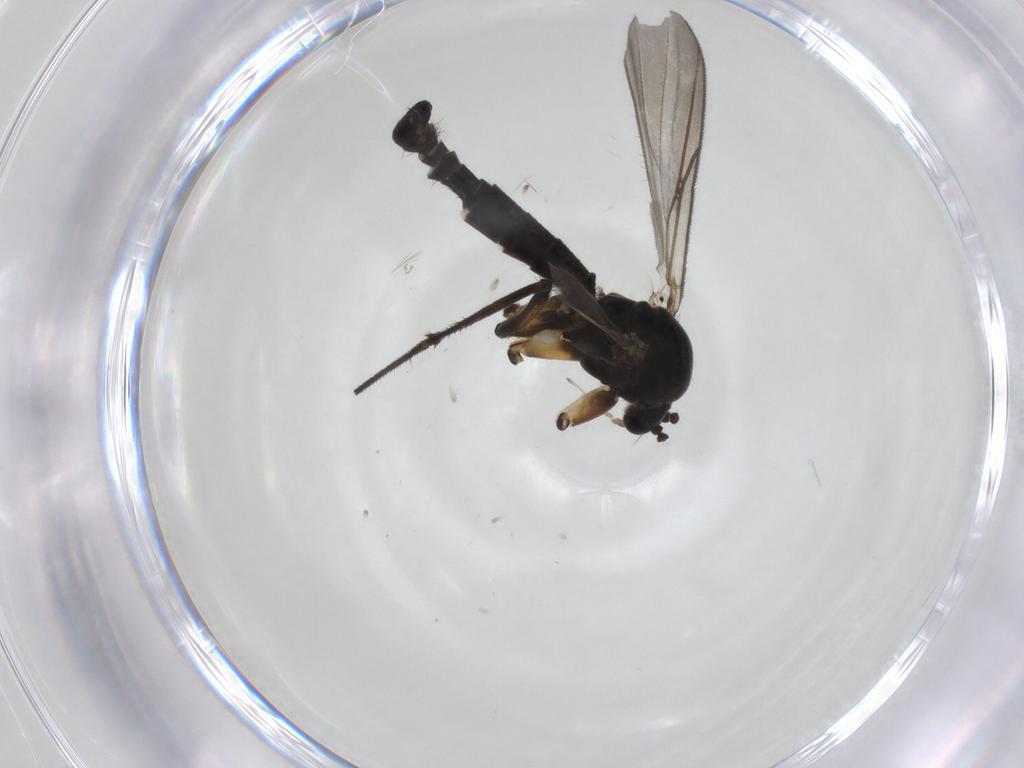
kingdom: Animalia
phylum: Arthropoda
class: Insecta
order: Diptera
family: Mycetophilidae
